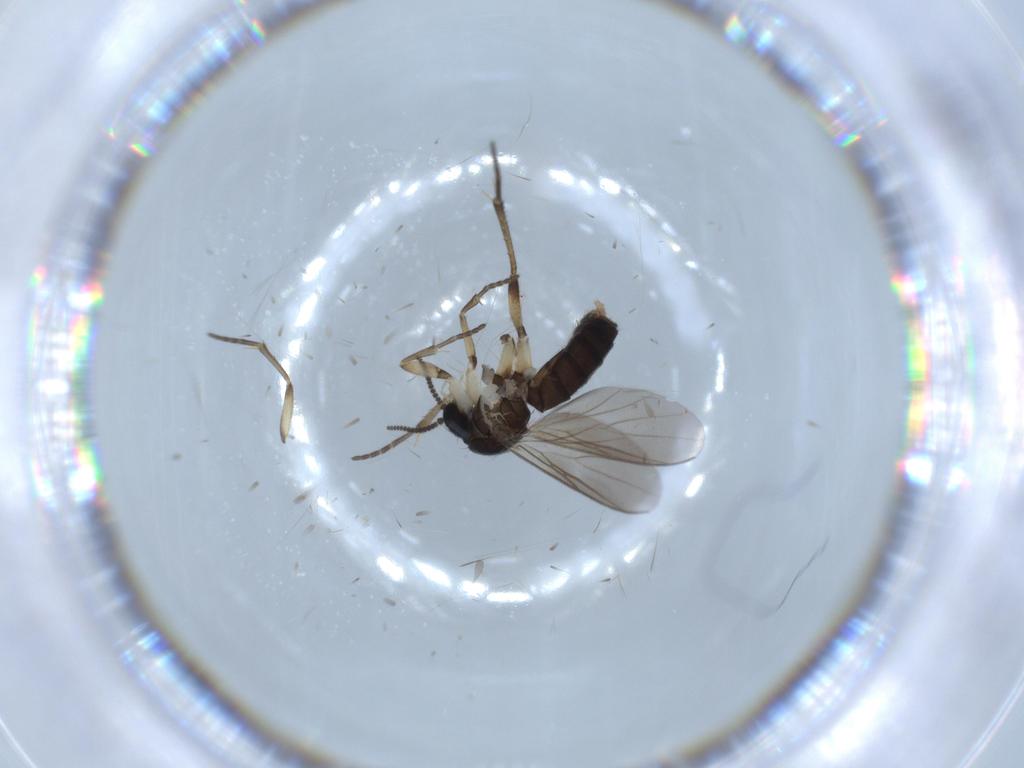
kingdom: Animalia
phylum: Arthropoda
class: Insecta
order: Diptera
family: Mycetophilidae
